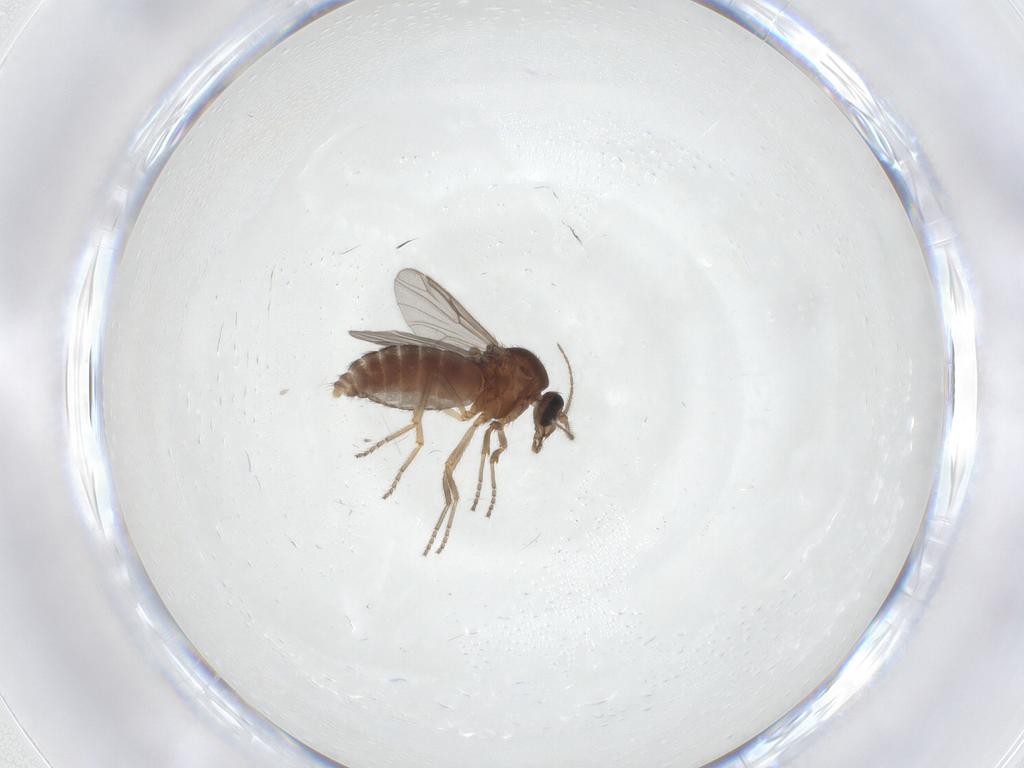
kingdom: Animalia
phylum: Arthropoda
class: Insecta
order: Diptera
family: Ceratopogonidae
